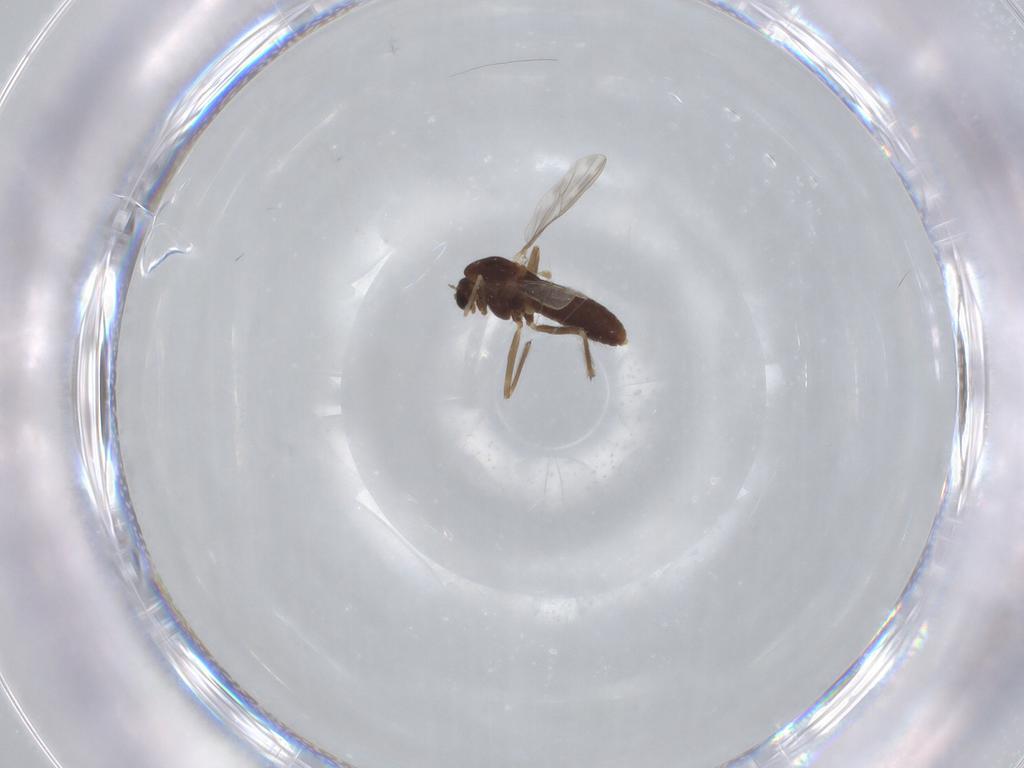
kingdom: Animalia
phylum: Arthropoda
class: Insecta
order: Diptera
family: Chironomidae
